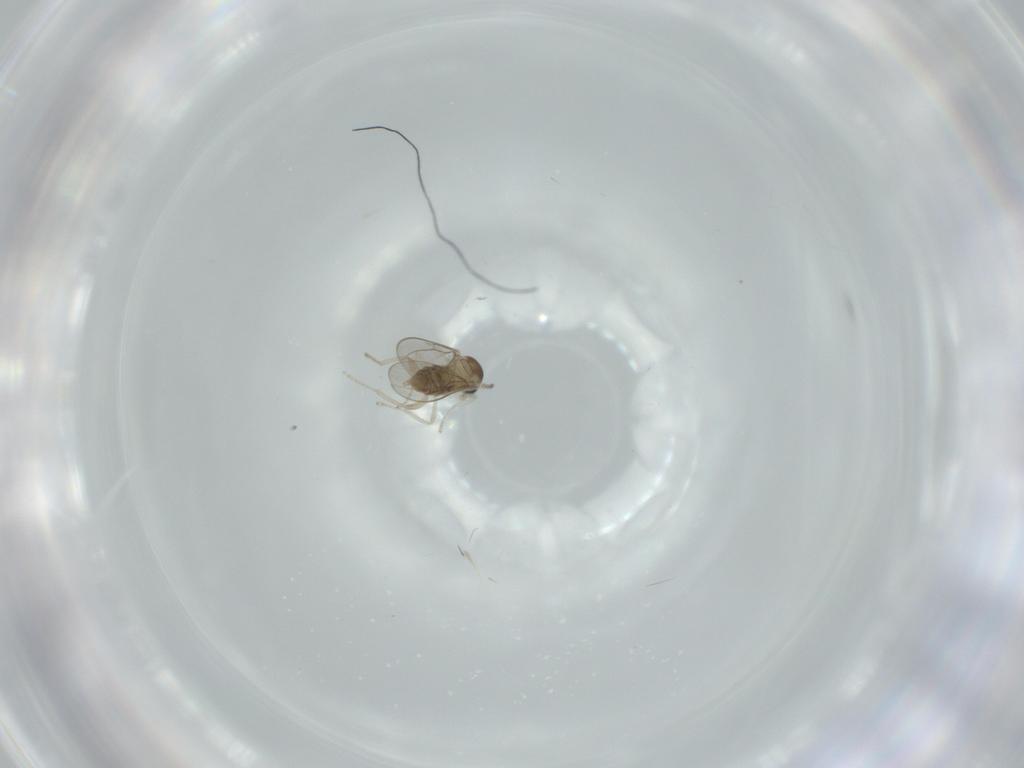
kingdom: Animalia
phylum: Arthropoda
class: Insecta
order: Diptera
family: Cecidomyiidae
